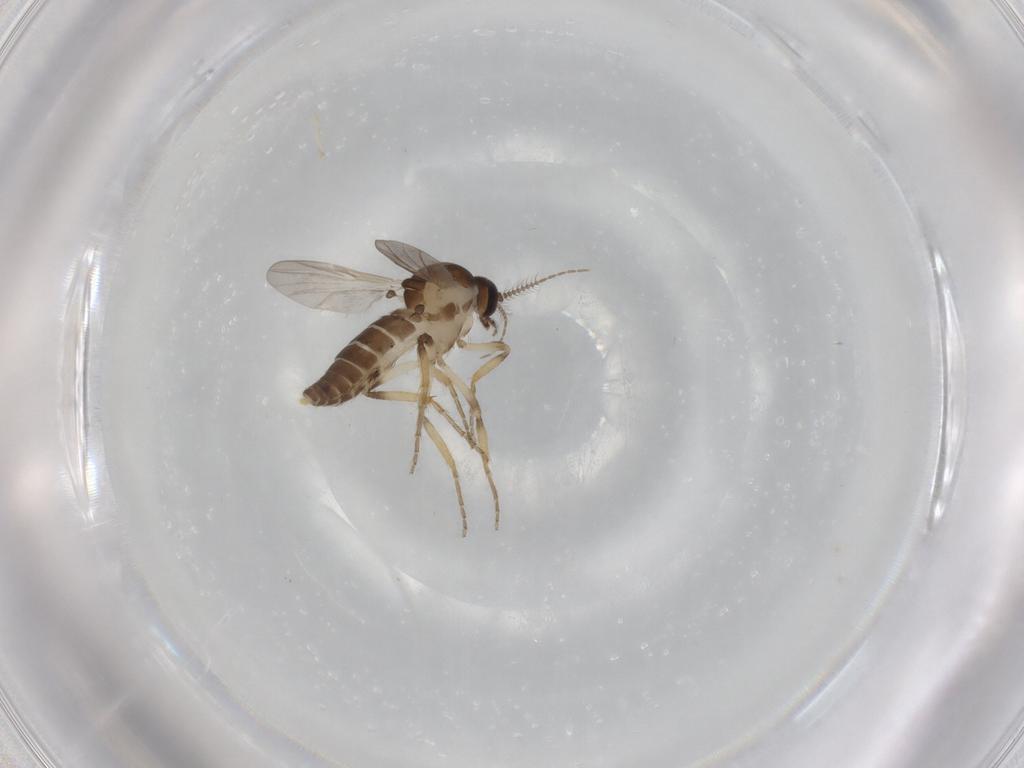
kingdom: Animalia
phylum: Arthropoda
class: Insecta
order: Diptera
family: Ceratopogonidae
